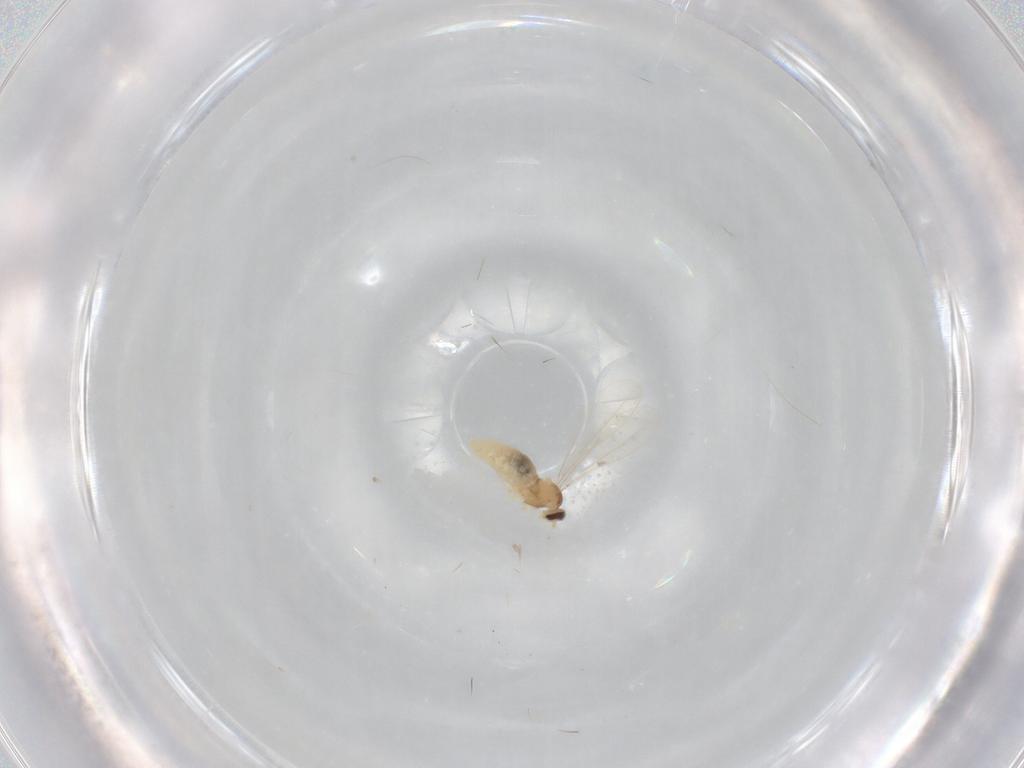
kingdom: Animalia
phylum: Arthropoda
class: Insecta
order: Diptera
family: Cecidomyiidae
